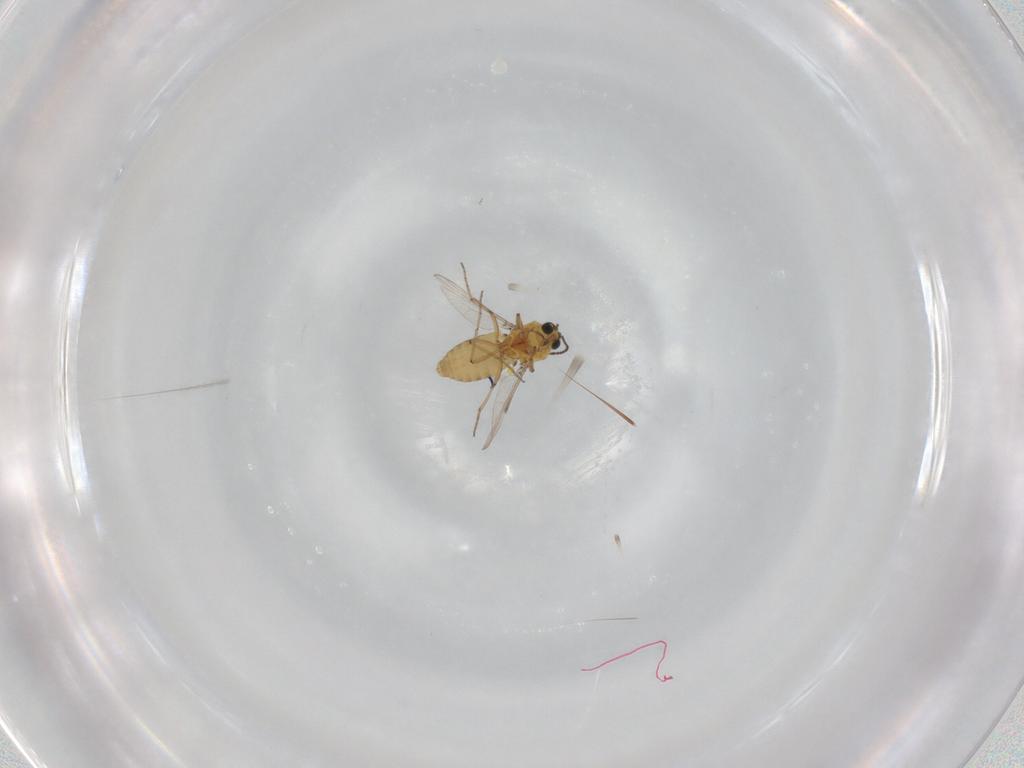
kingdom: Animalia
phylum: Arthropoda
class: Insecta
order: Diptera
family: Ceratopogonidae
